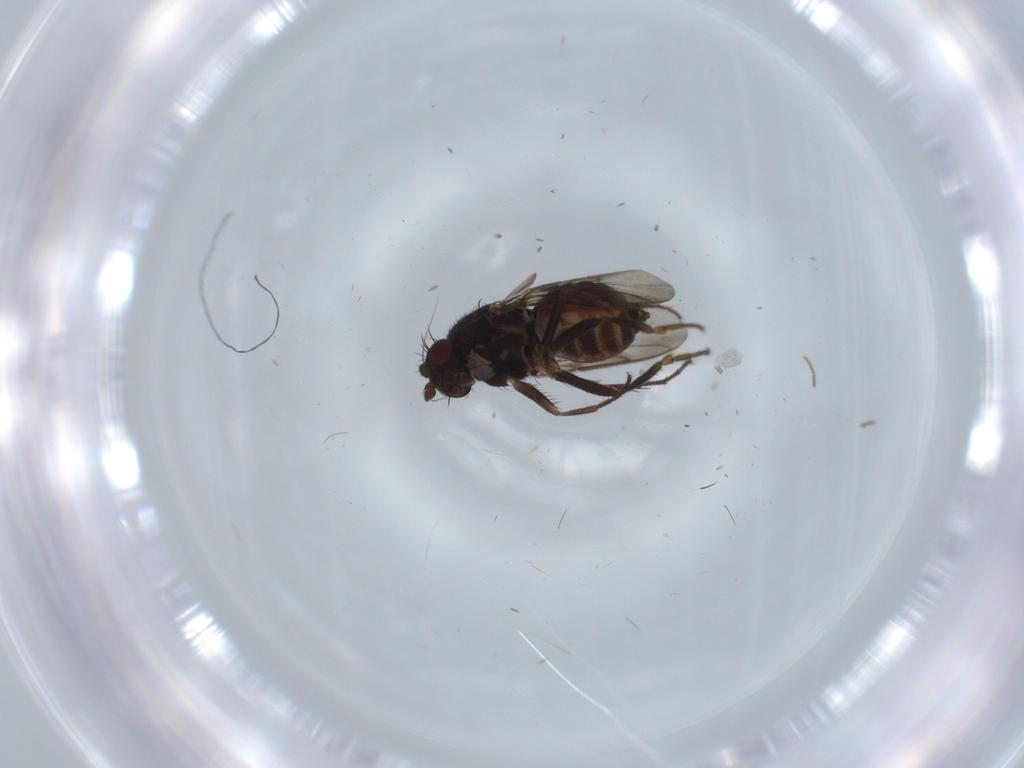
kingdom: Animalia
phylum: Arthropoda
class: Insecta
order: Diptera
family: Sphaeroceridae
